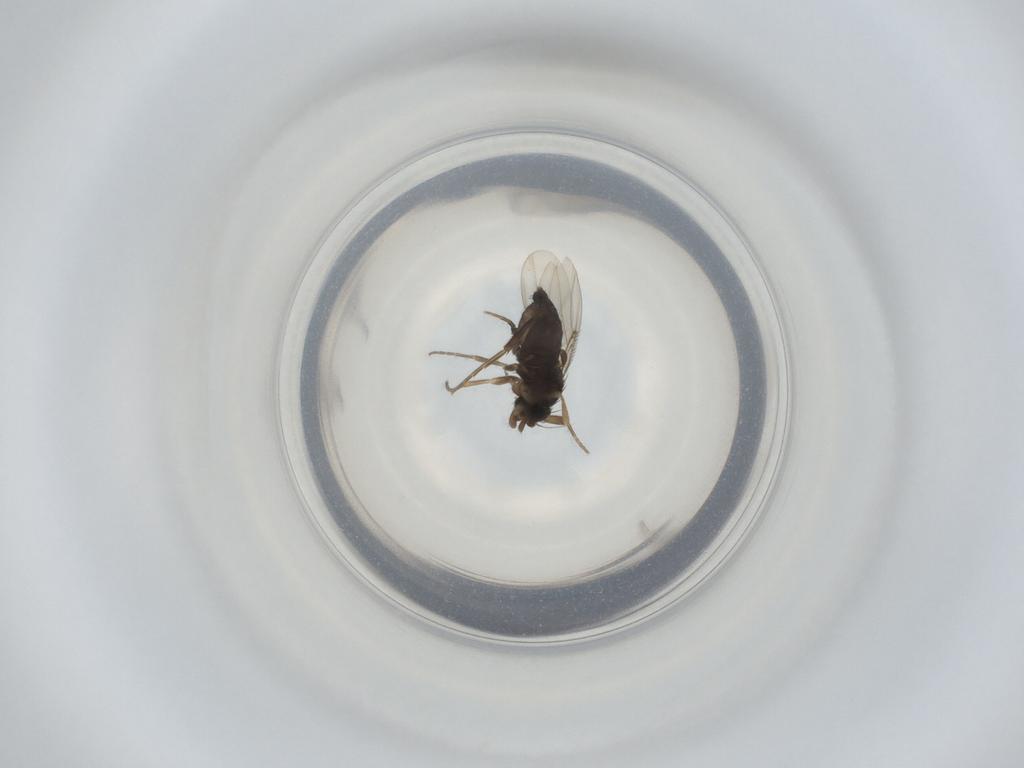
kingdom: Animalia
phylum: Arthropoda
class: Insecta
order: Diptera
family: Phoridae
